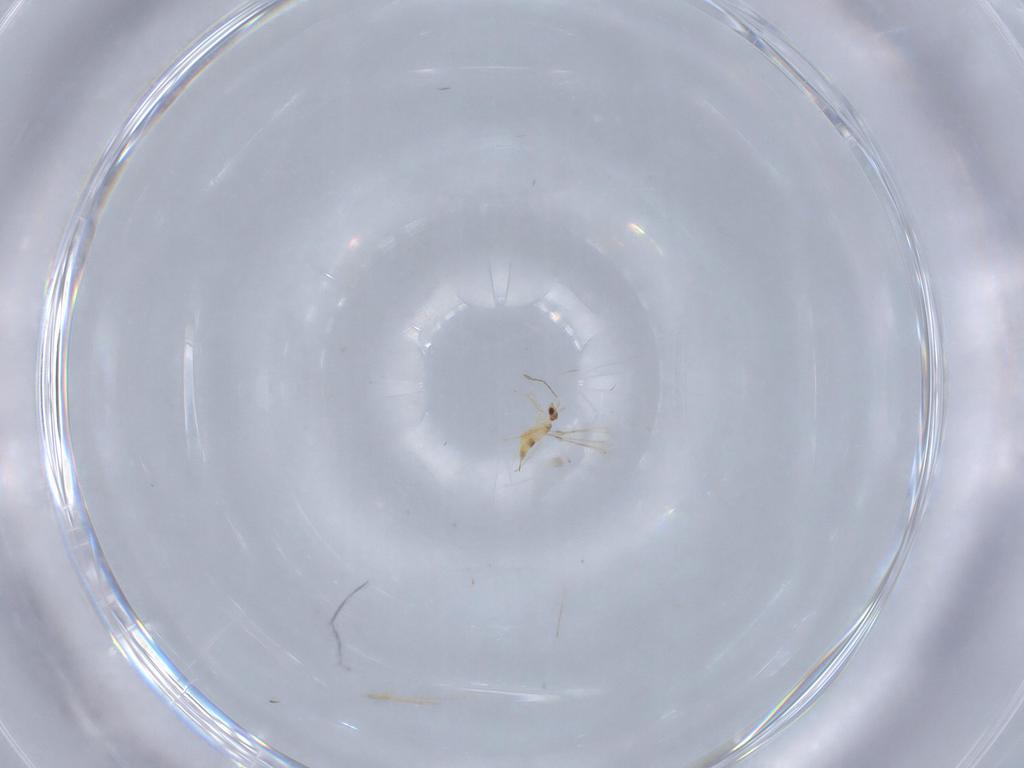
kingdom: Animalia
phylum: Arthropoda
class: Insecta
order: Hymenoptera
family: Mymaridae
